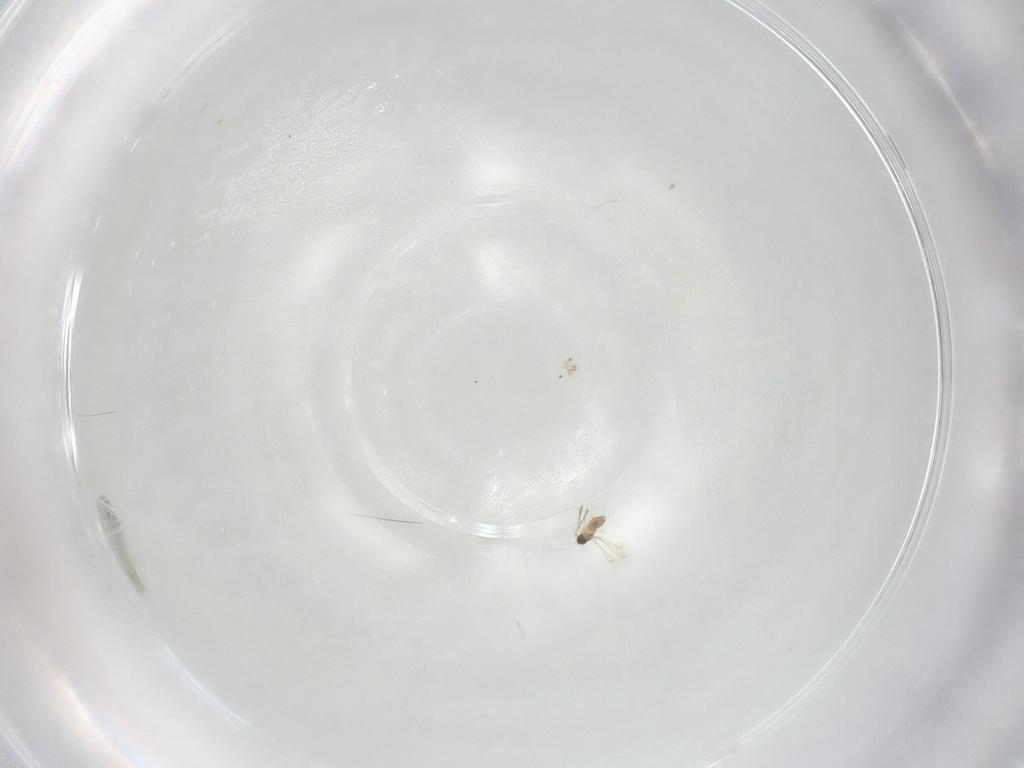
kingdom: Animalia
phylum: Arthropoda
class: Insecta
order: Hymenoptera
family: Mymaridae
